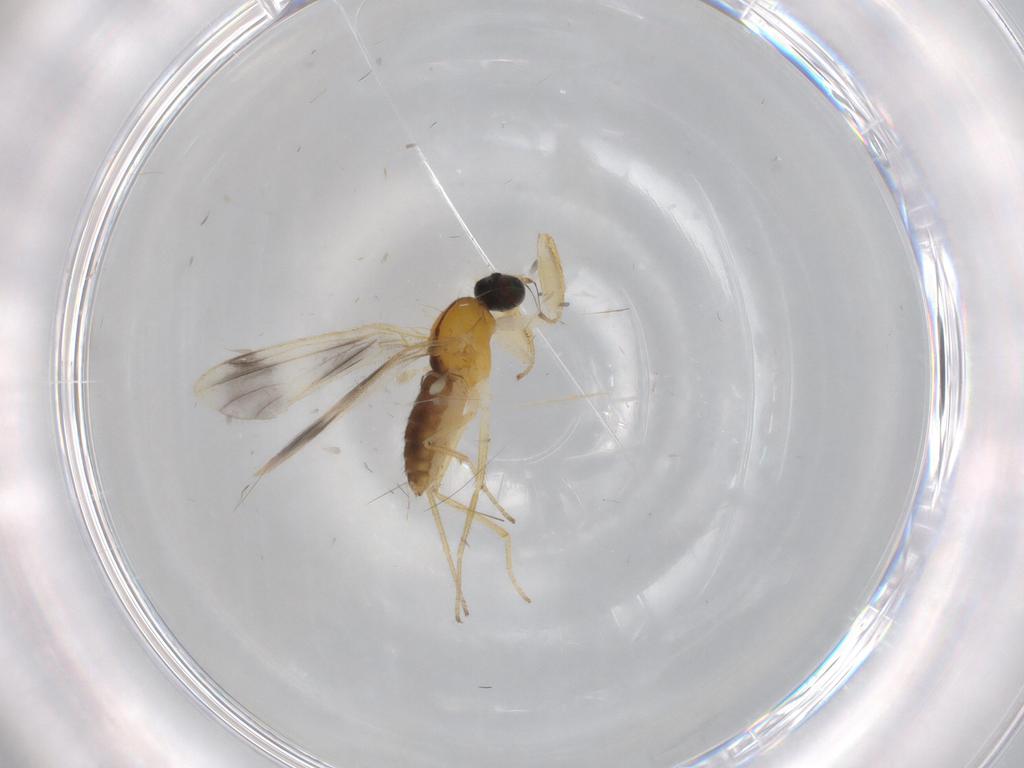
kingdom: Animalia
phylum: Arthropoda
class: Insecta
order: Diptera
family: Empididae
